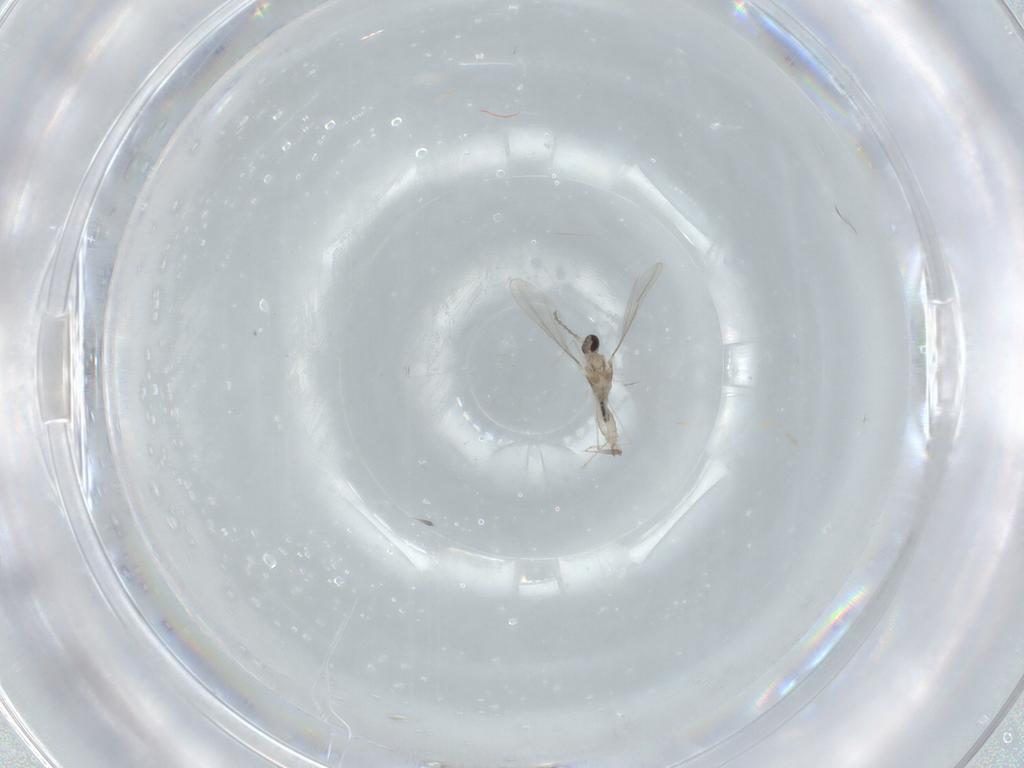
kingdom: Animalia
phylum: Arthropoda
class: Insecta
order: Diptera
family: Cecidomyiidae
